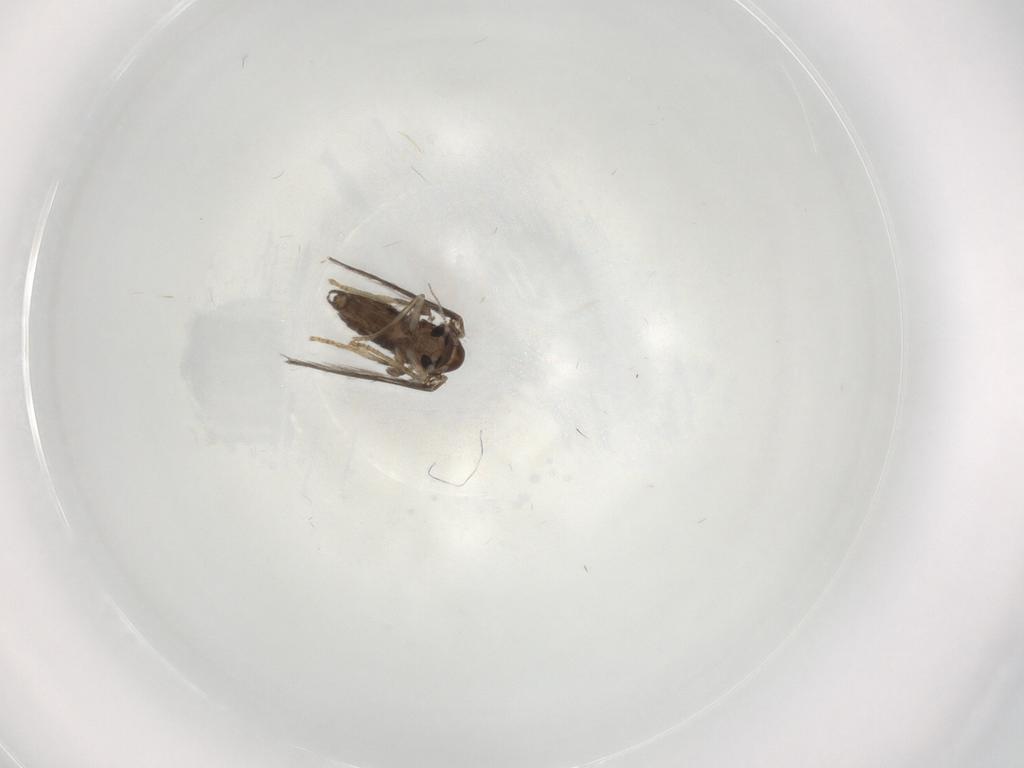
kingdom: Animalia
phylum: Arthropoda
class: Insecta
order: Diptera
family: Psychodidae
